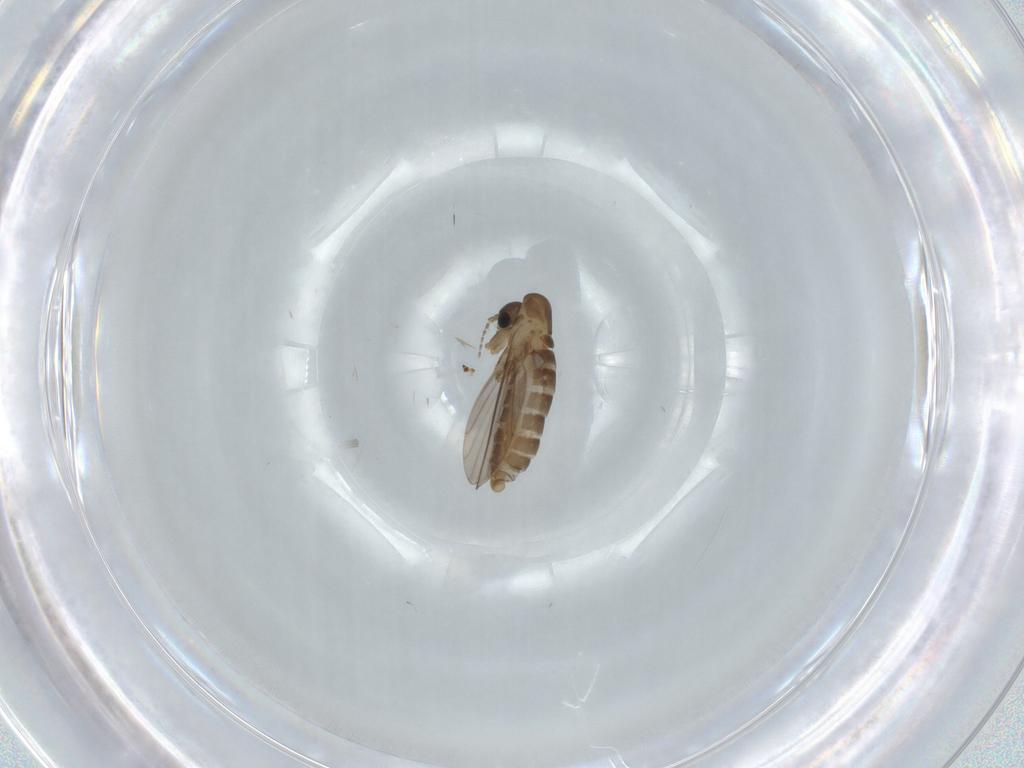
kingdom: Animalia
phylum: Arthropoda
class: Insecta
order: Diptera
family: Psychodidae
